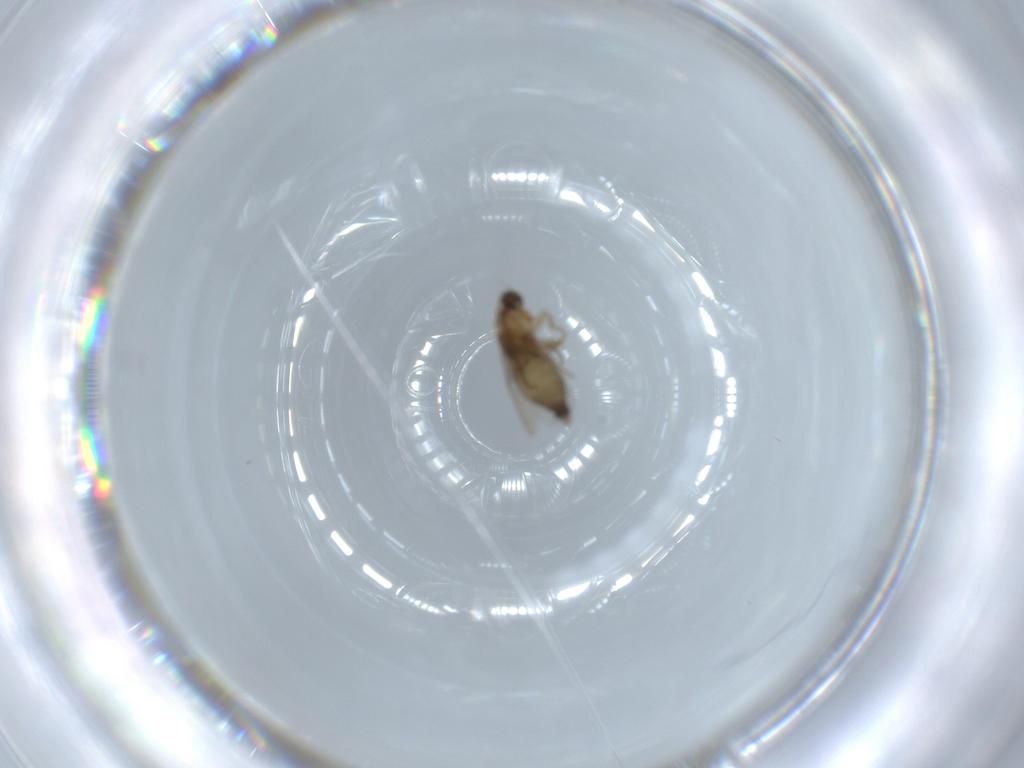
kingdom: Animalia
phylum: Arthropoda
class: Insecta
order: Diptera
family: Phoridae
